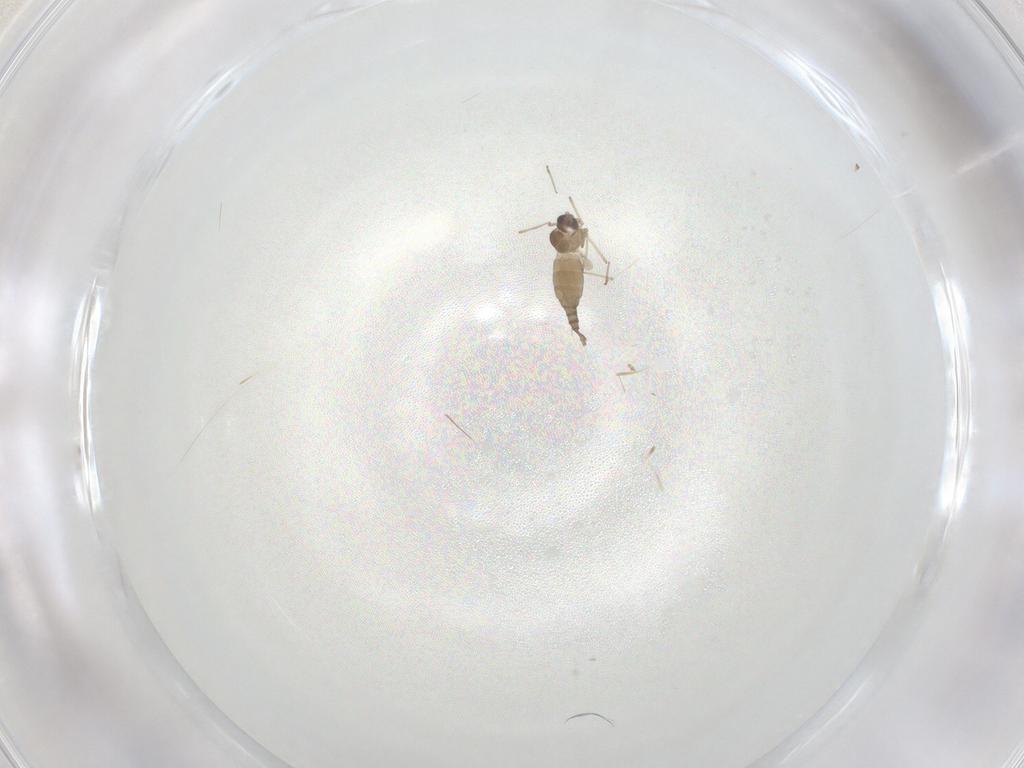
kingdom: Animalia
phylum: Arthropoda
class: Insecta
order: Diptera
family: Hybotidae
